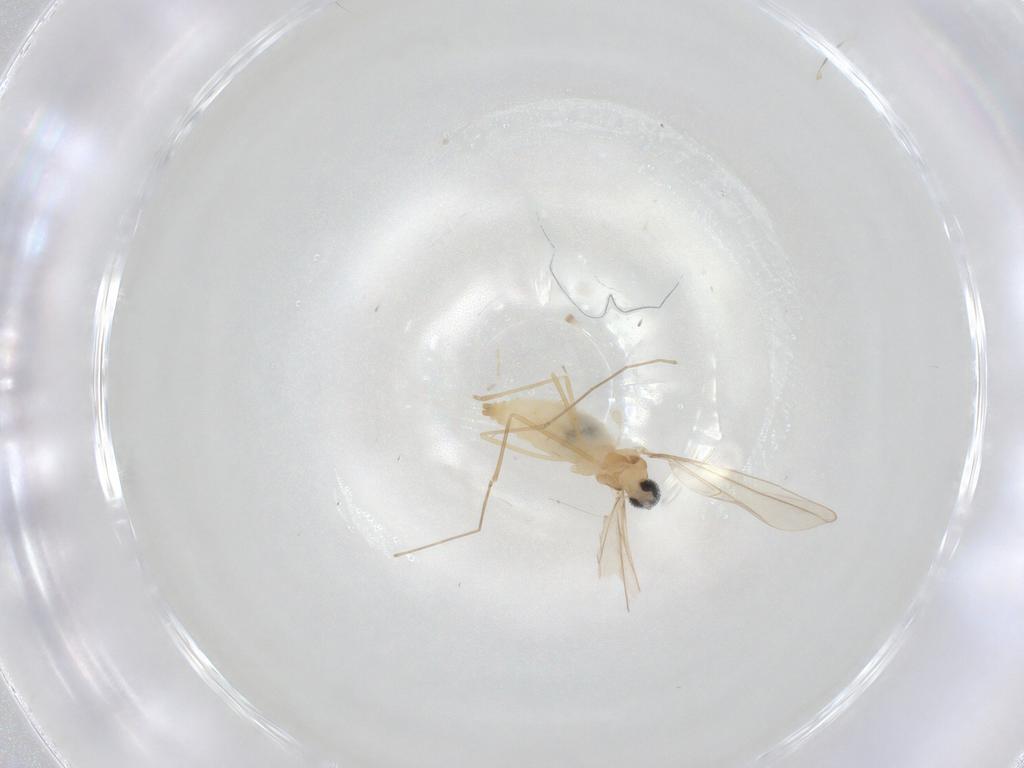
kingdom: Animalia
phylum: Arthropoda
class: Insecta
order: Diptera
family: Cecidomyiidae
